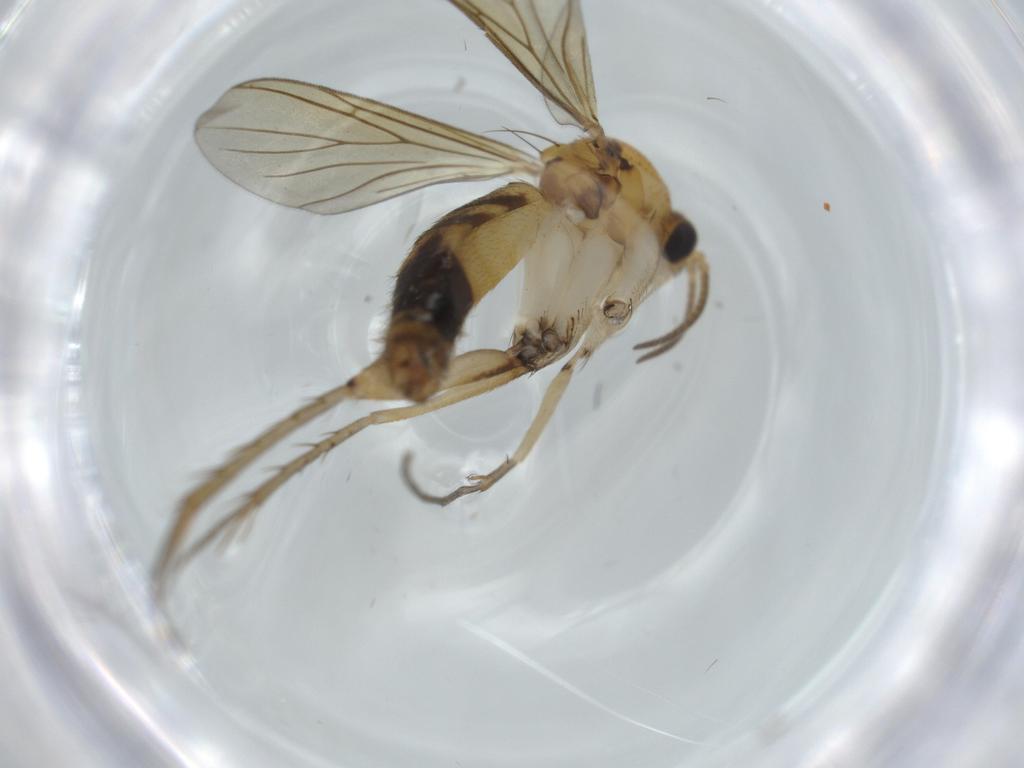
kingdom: Animalia
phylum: Arthropoda
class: Insecta
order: Diptera
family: Mycetophilidae
